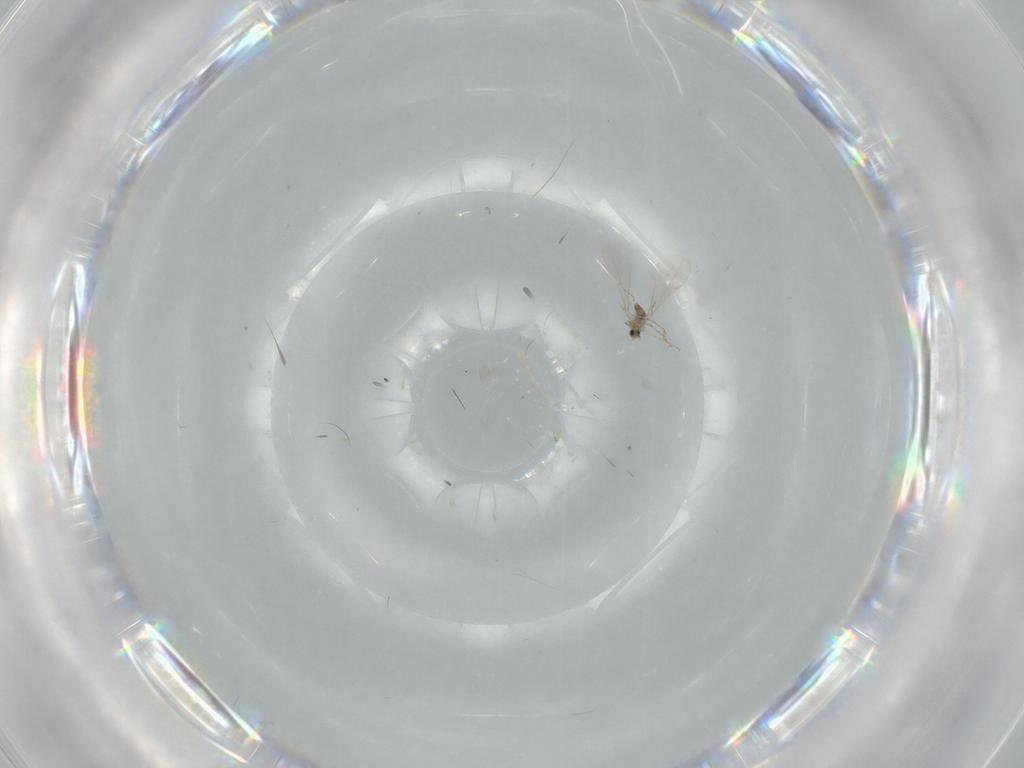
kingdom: Animalia
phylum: Arthropoda
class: Insecta
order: Diptera
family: Cecidomyiidae
